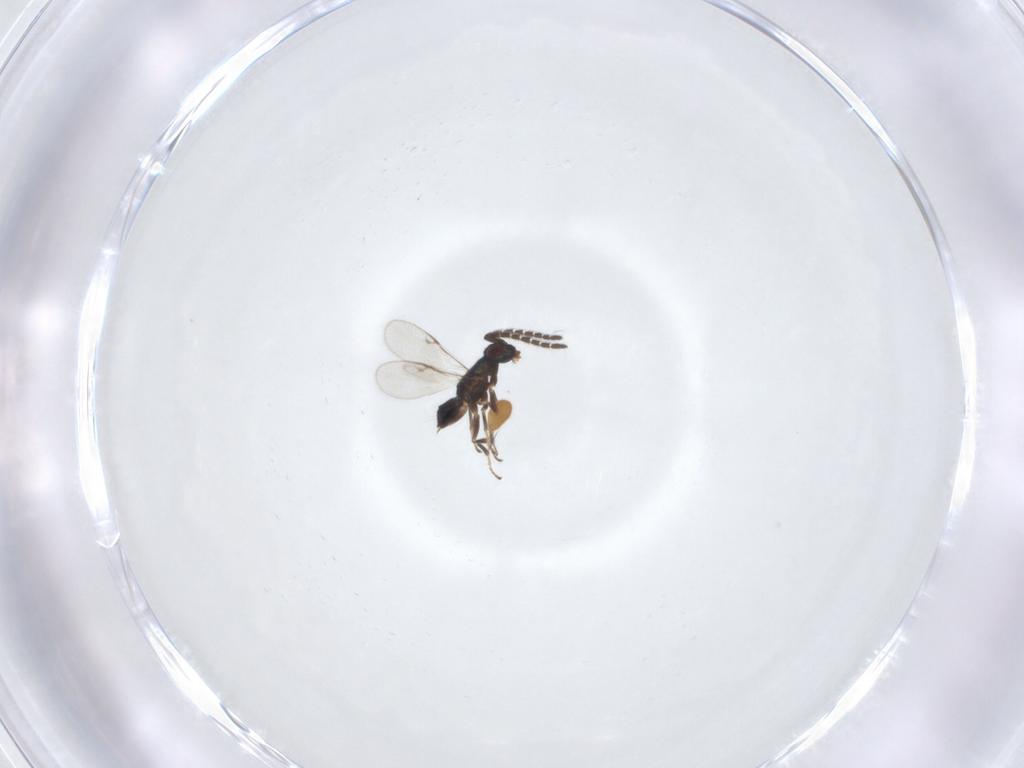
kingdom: Animalia
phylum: Arthropoda
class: Insecta
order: Hymenoptera
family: Encyrtidae
